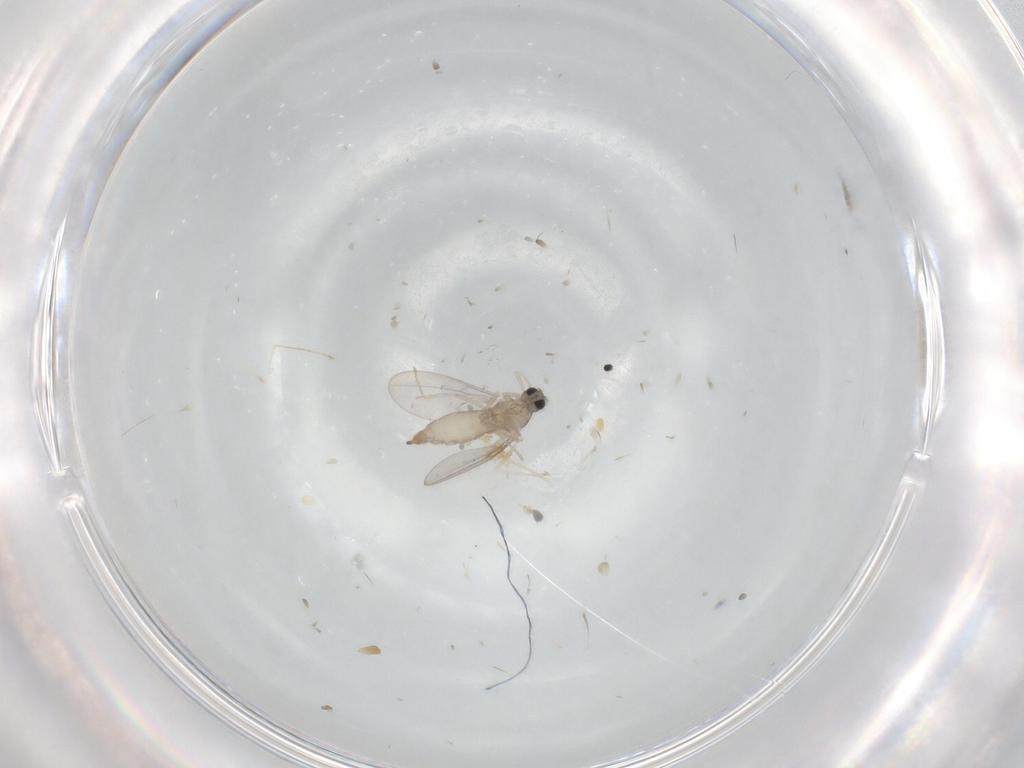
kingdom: Animalia
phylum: Arthropoda
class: Insecta
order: Diptera
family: Cecidomyiidae
